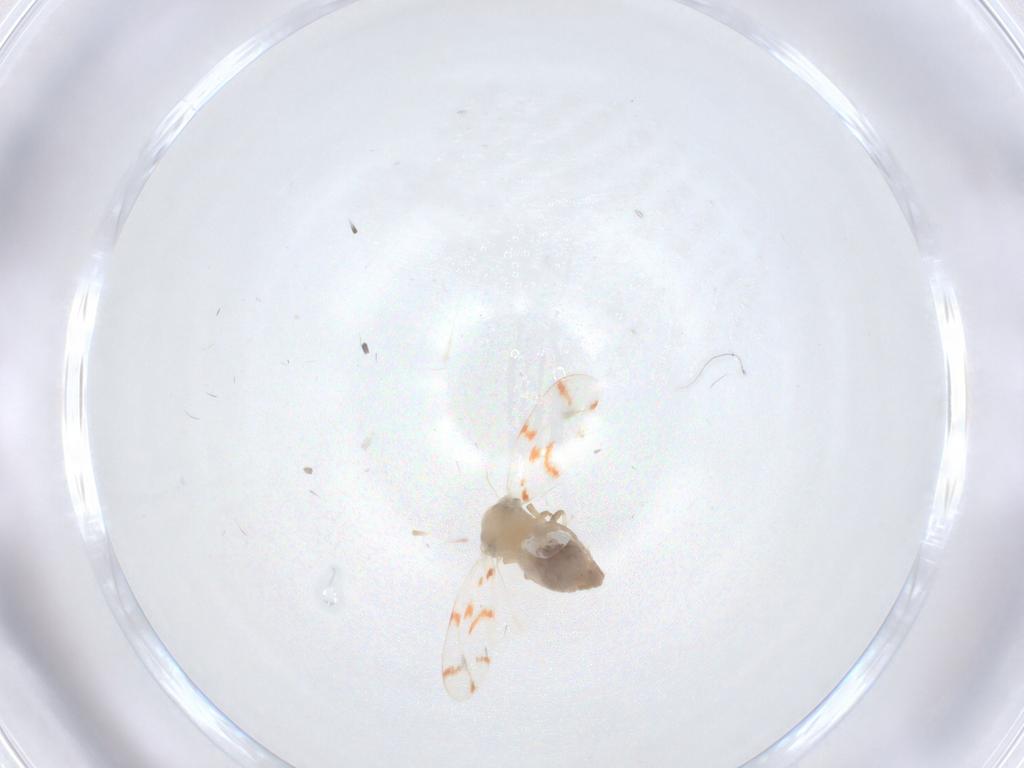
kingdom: Animalia
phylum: Arthropoda
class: Insecta
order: Hemiptera
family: Aleyrodidae
